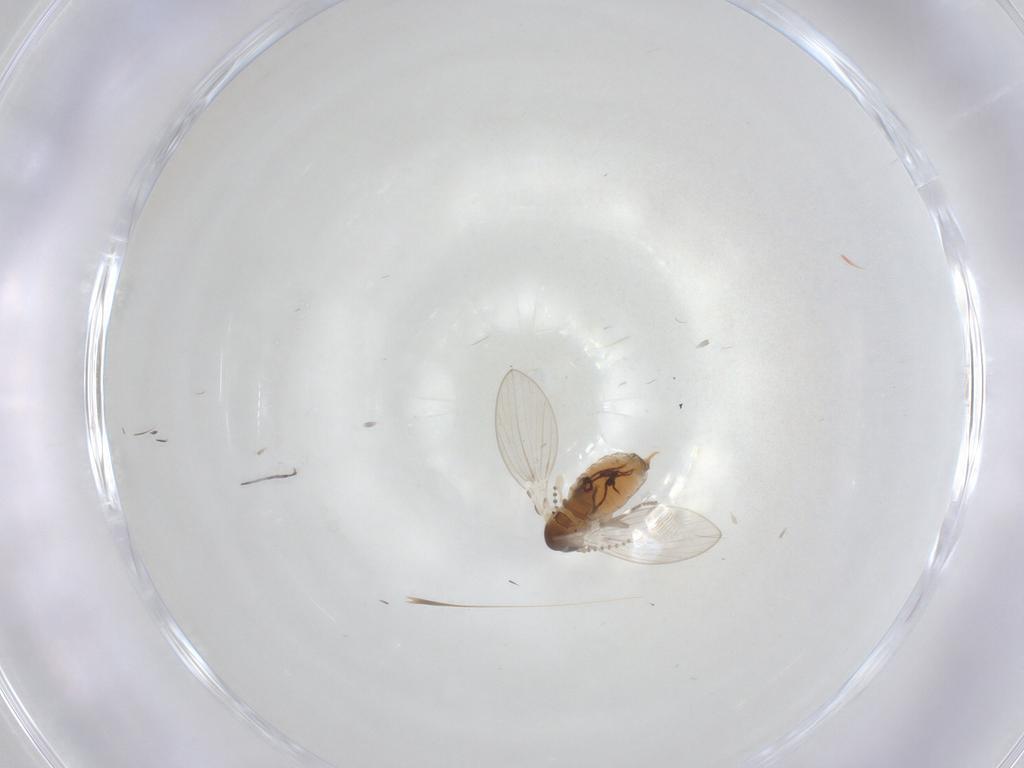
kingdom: Animalia
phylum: Arthropoda
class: Insecta
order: Diptera
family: Psychodidae
